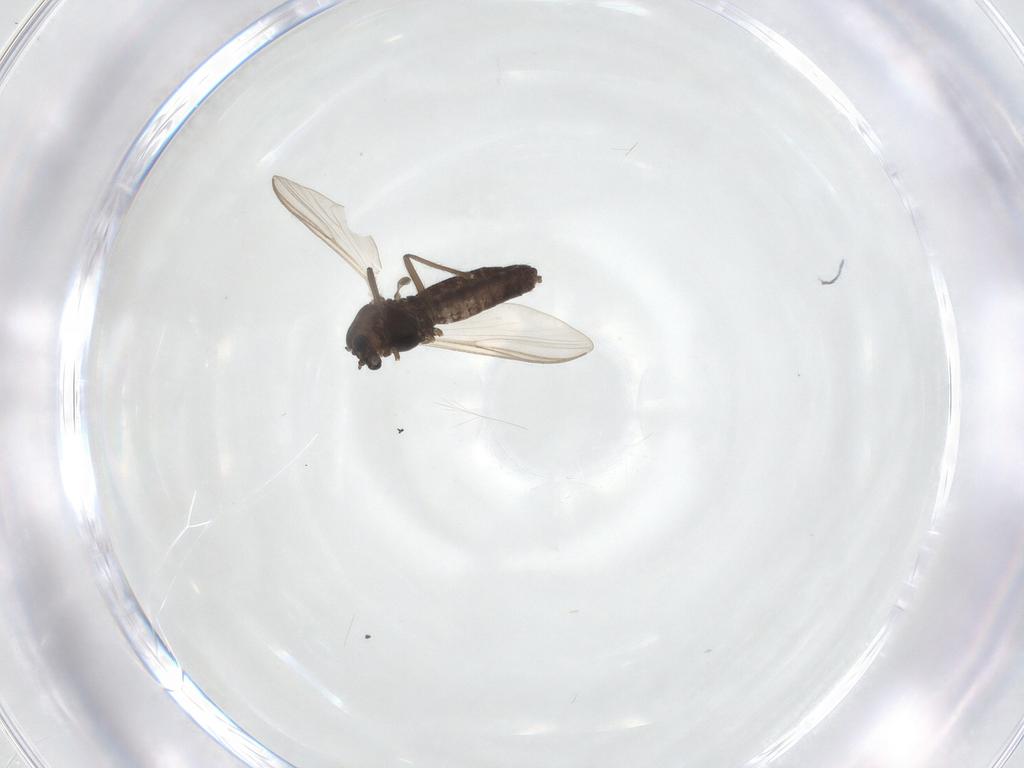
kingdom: Animalia
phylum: Arthropoda
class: Insecta
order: Diptera
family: Chironomidae
